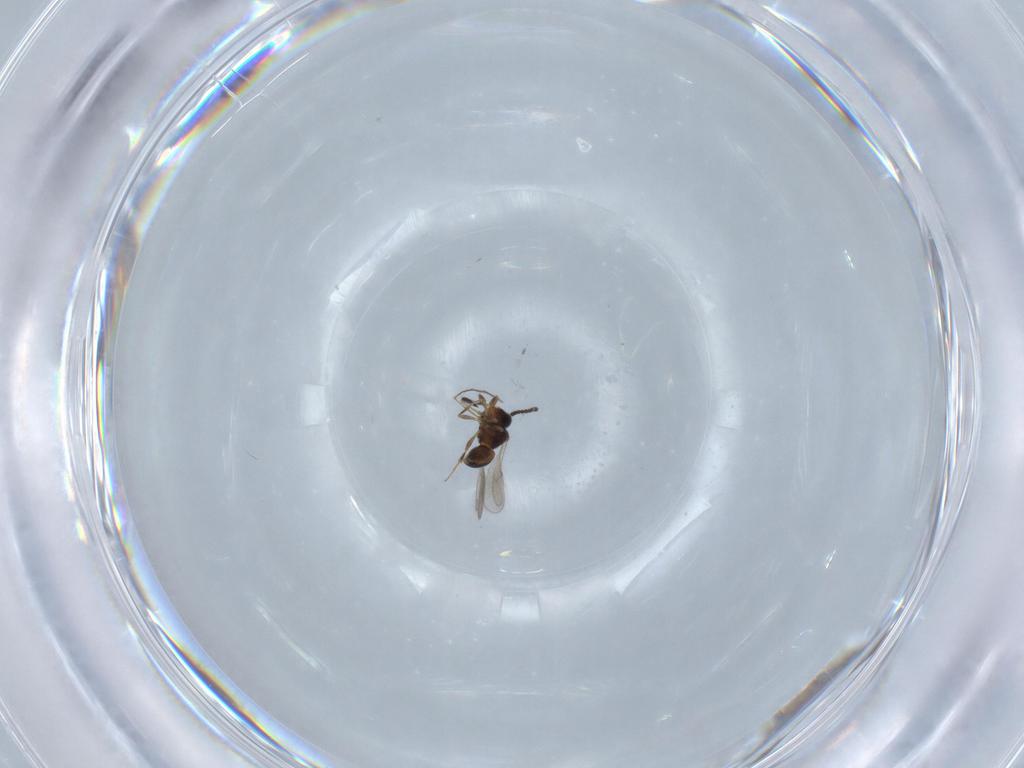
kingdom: Animalia
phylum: Arthropoda
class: Insecta
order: Hymenoptera
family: Scelionidae
